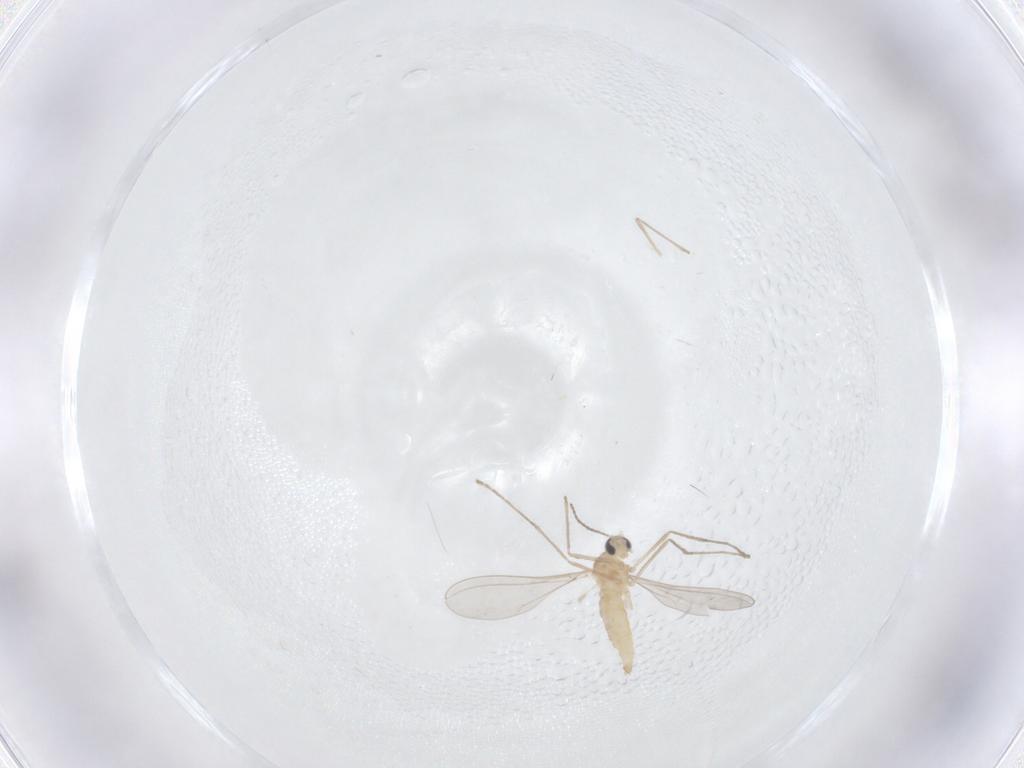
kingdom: Animalia
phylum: Arthropoda
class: Insecta
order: Diptera
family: Cecidomyiidae
